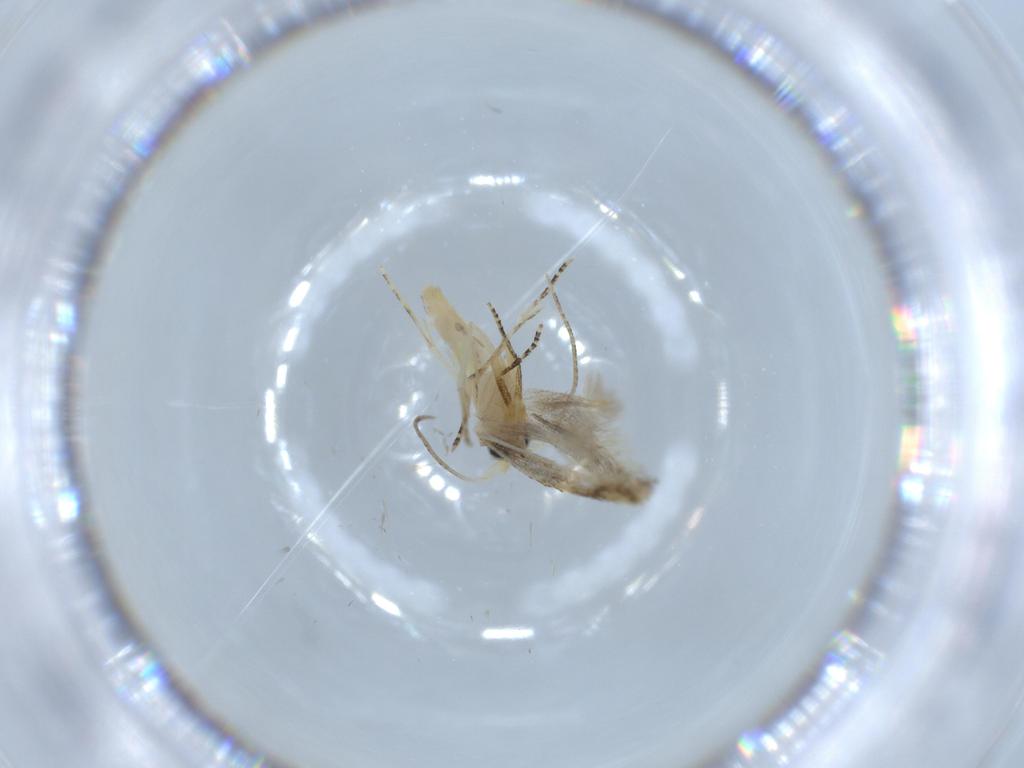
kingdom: Animalia
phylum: Arthropoda
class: Insecta
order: Lepidoptera
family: Bucculatricidae
